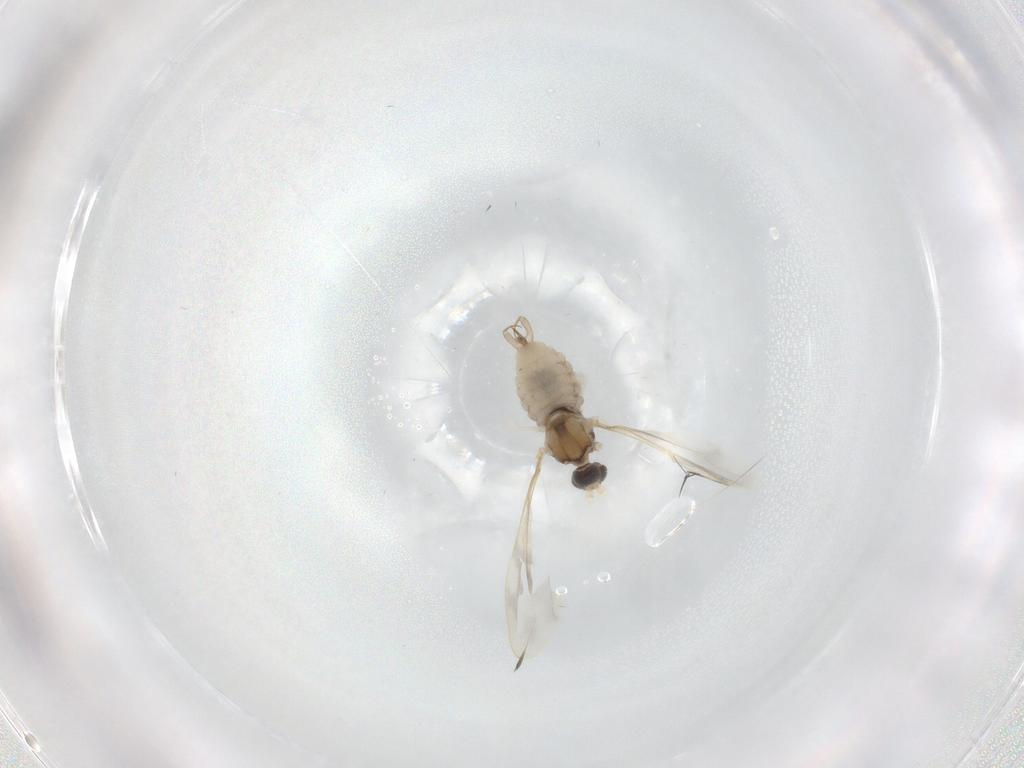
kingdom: Animalia
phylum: Arthropoda
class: Insecta
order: Diptera
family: Cecidomyiidae
